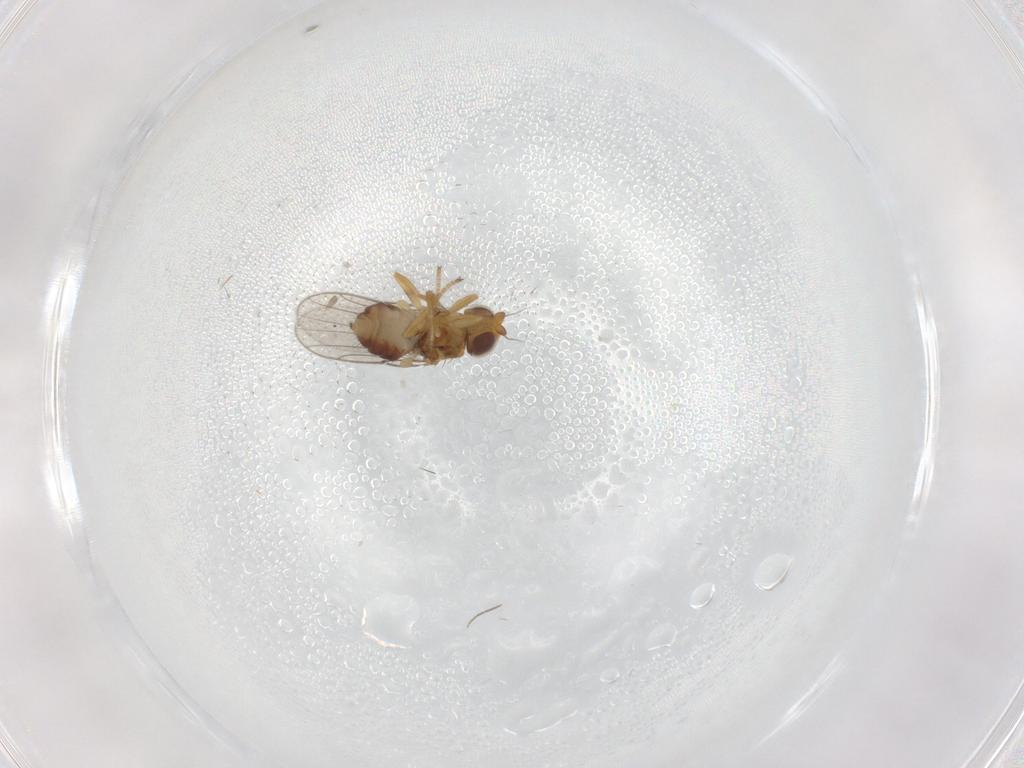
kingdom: Animalia
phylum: Arthropoda
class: Insecta
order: Diptera
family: Chloropidae
